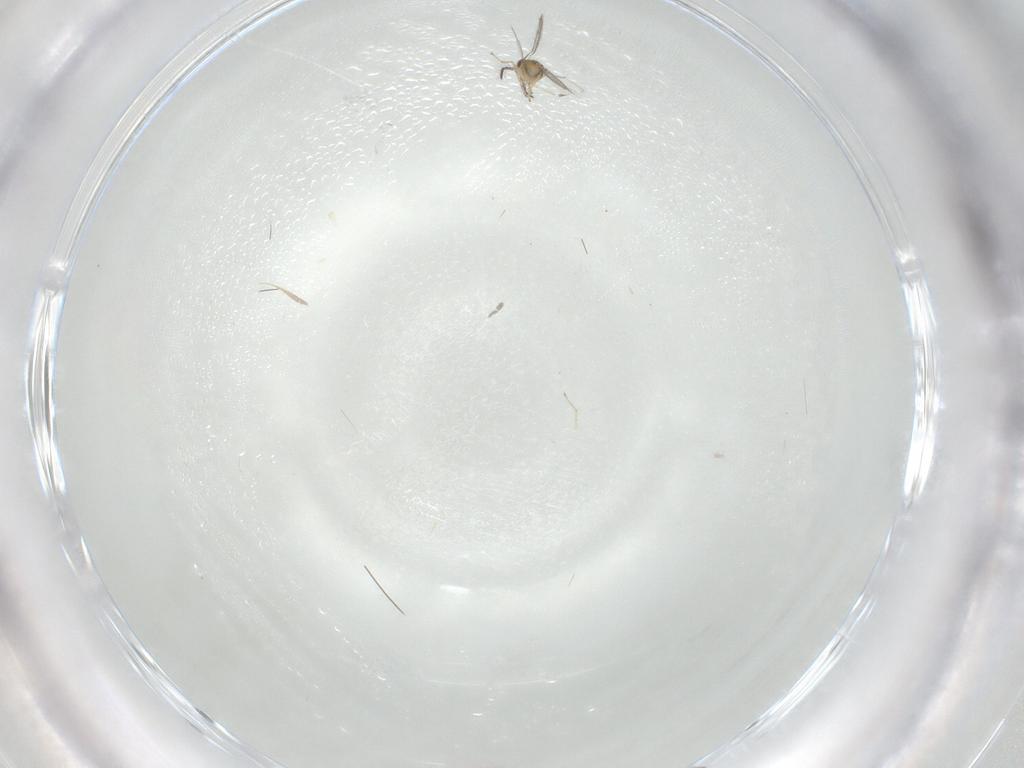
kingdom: Animalia
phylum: Arthropoda
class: Insecta
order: Hymenoptera
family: Eulophidae
